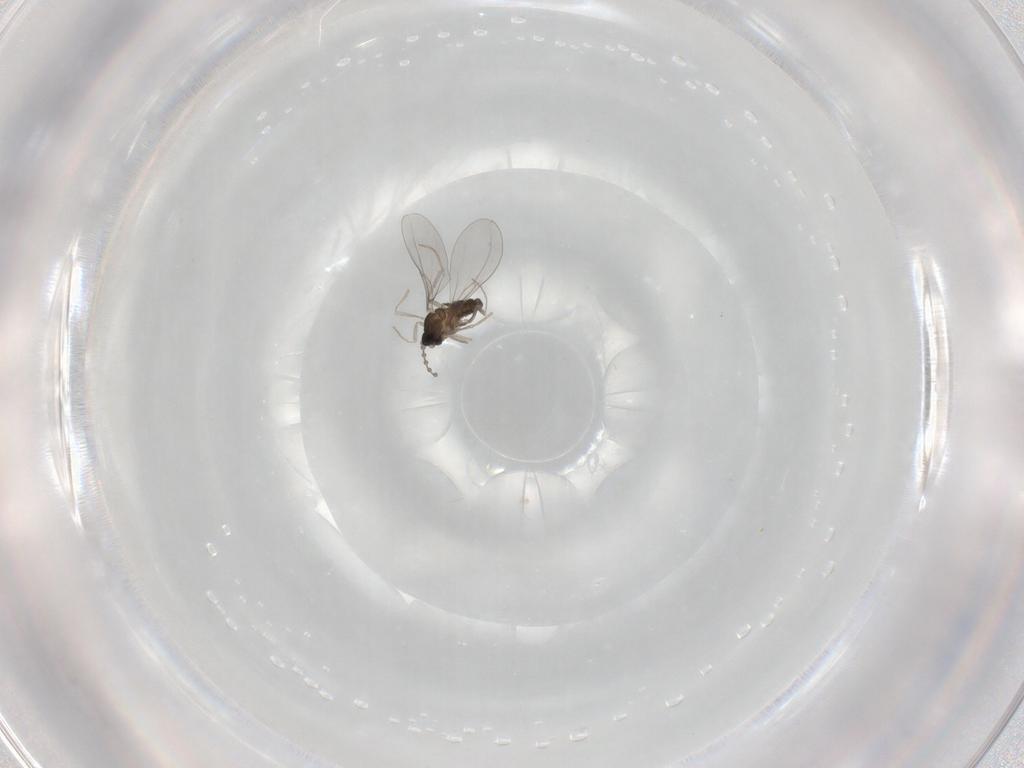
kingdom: Animalia
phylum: Arthropoda
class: Insecta
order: Diptera
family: Cecidomyiidae
